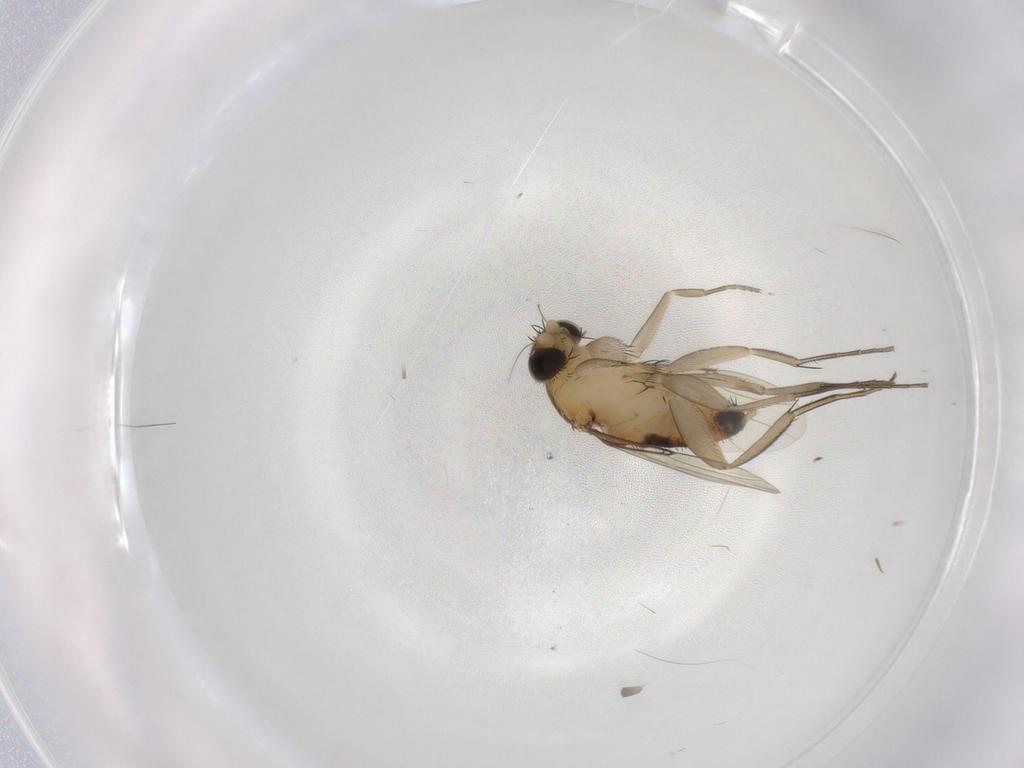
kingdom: Animalia
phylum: Arthropoda
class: Insecta
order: Diptera
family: Phoridae
